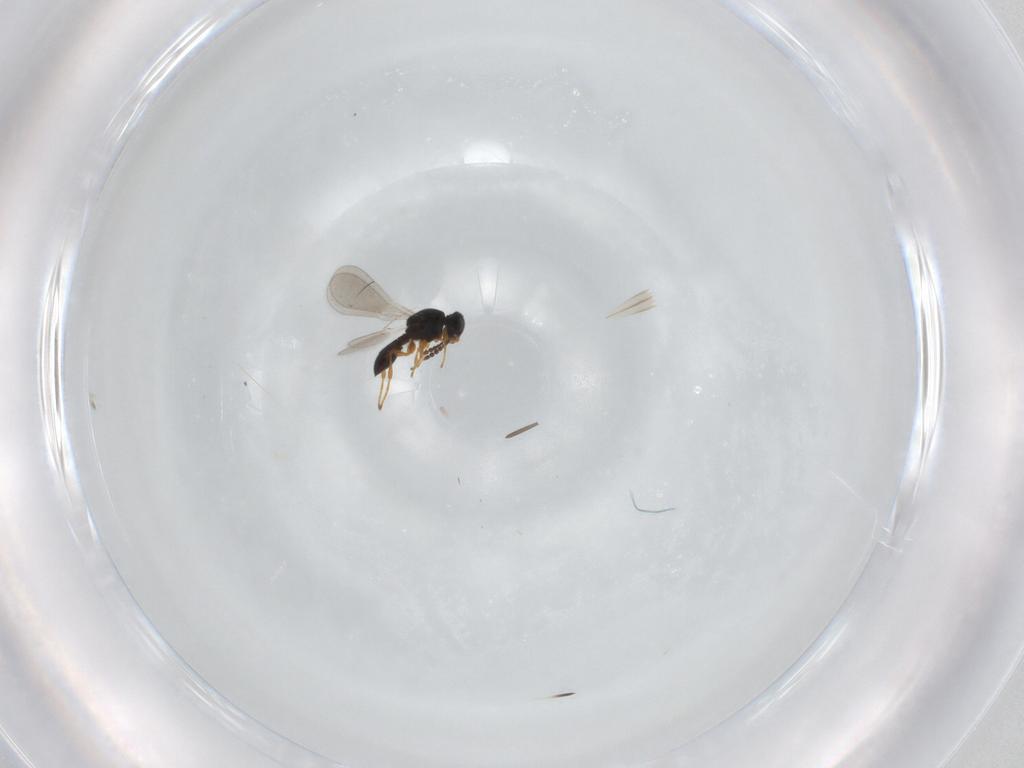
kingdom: Animalia
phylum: Arthropoda
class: Insecta
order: Hymenoptera
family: Platygastridae
